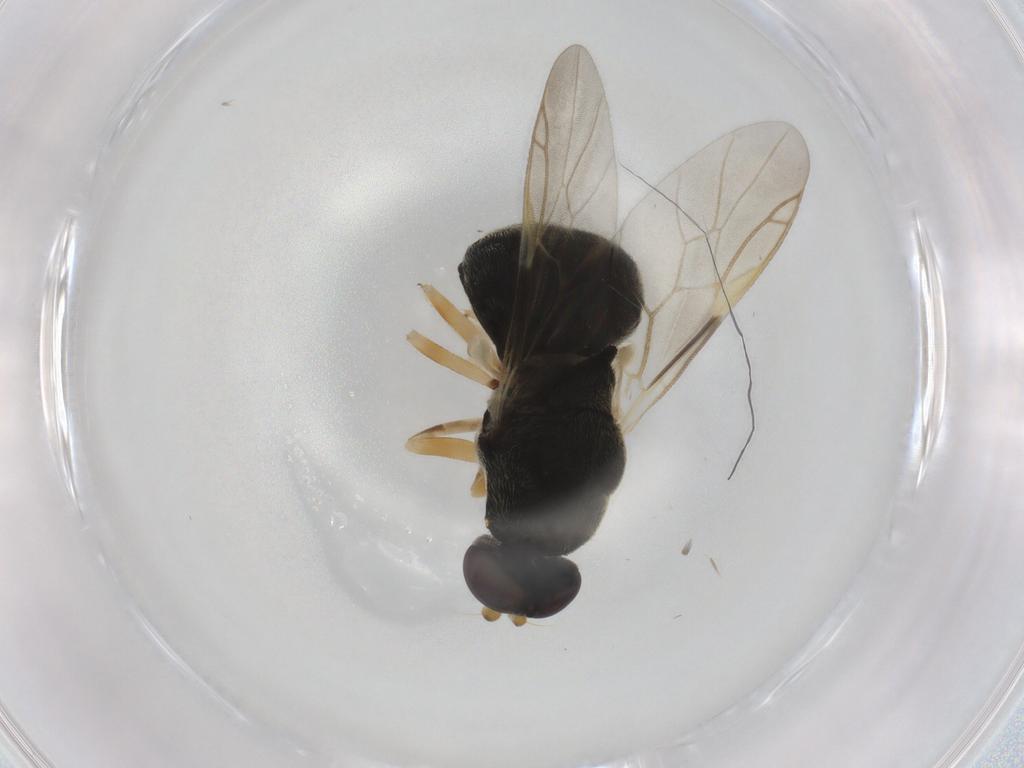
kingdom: Animalia
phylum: Arthropoda
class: Insecta
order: Diptera
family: Stratiomyidae
